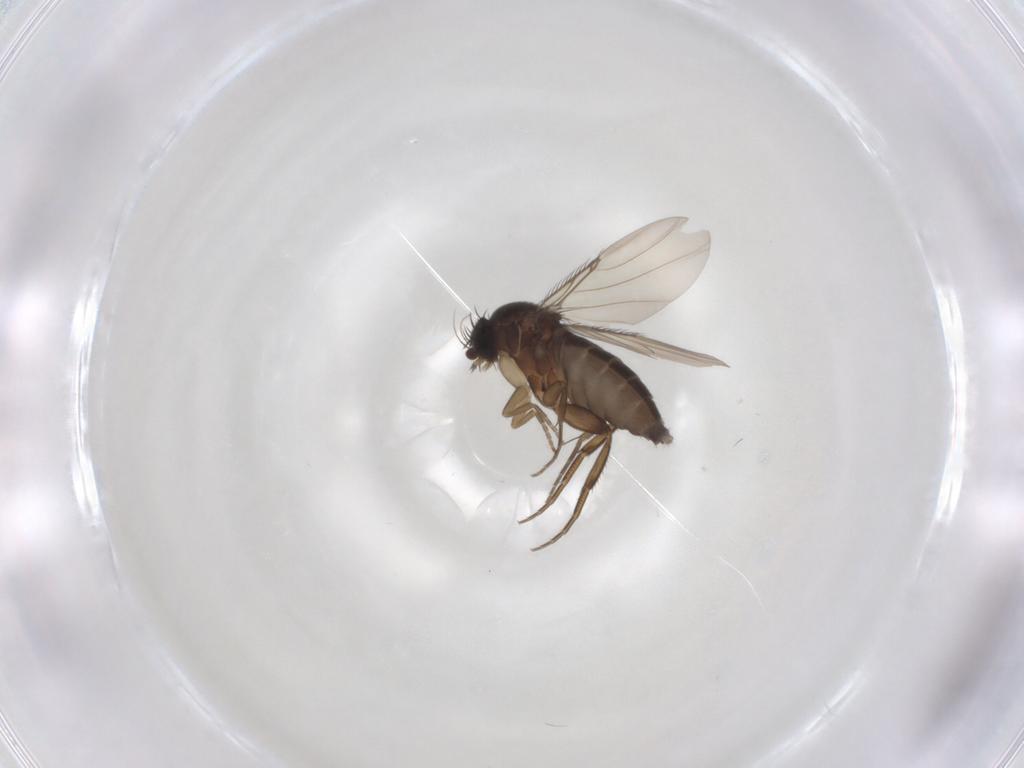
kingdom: Animalia
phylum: Arthropoda
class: Insecta
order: Diptera
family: Phoridae
